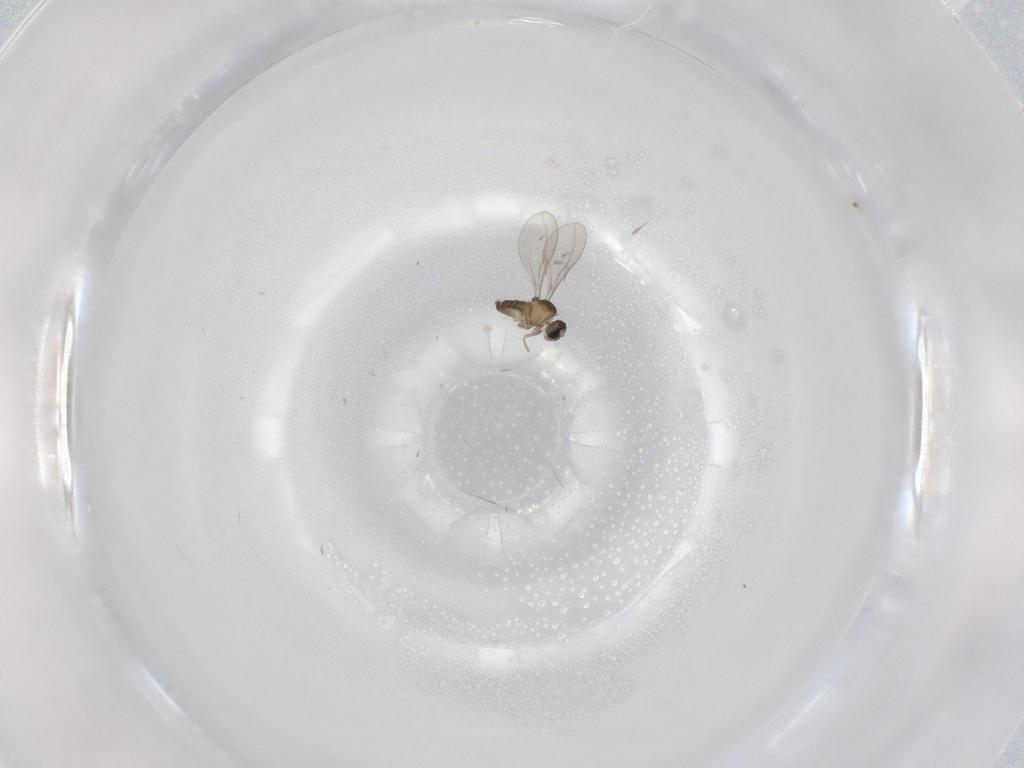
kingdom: Animalia
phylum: Arthropoda
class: Insecta
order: Diptera
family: Cecidomyiidae
